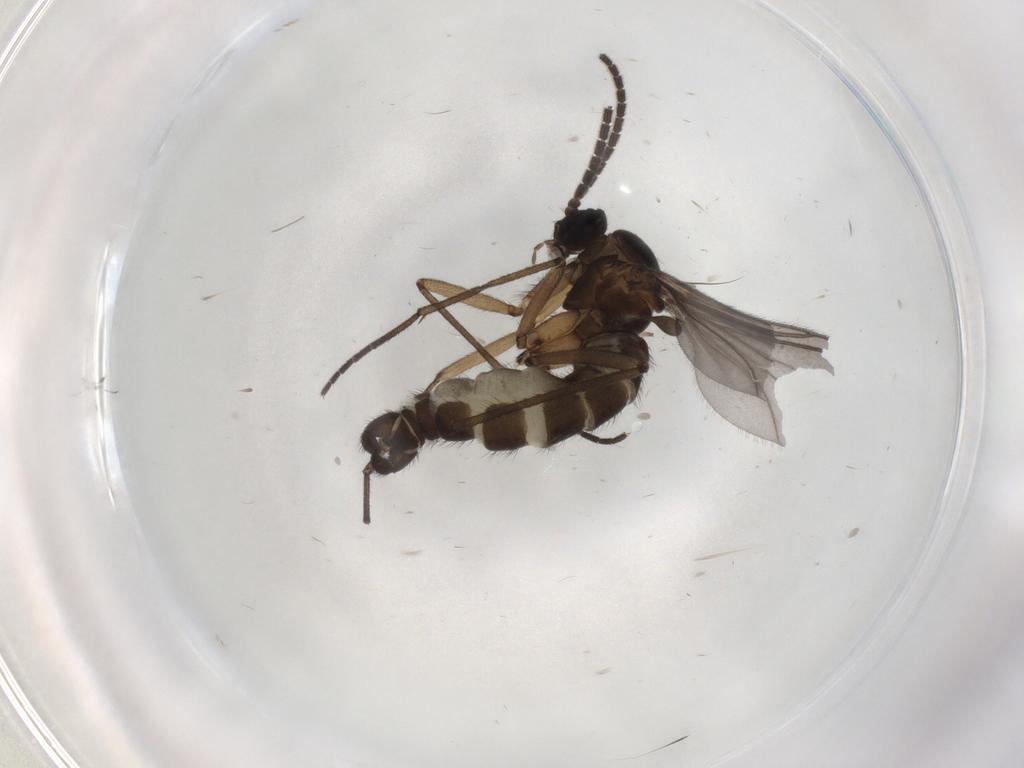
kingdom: Animalia
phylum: Arthropoda
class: Insecta
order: Diptera
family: Sciaridae
